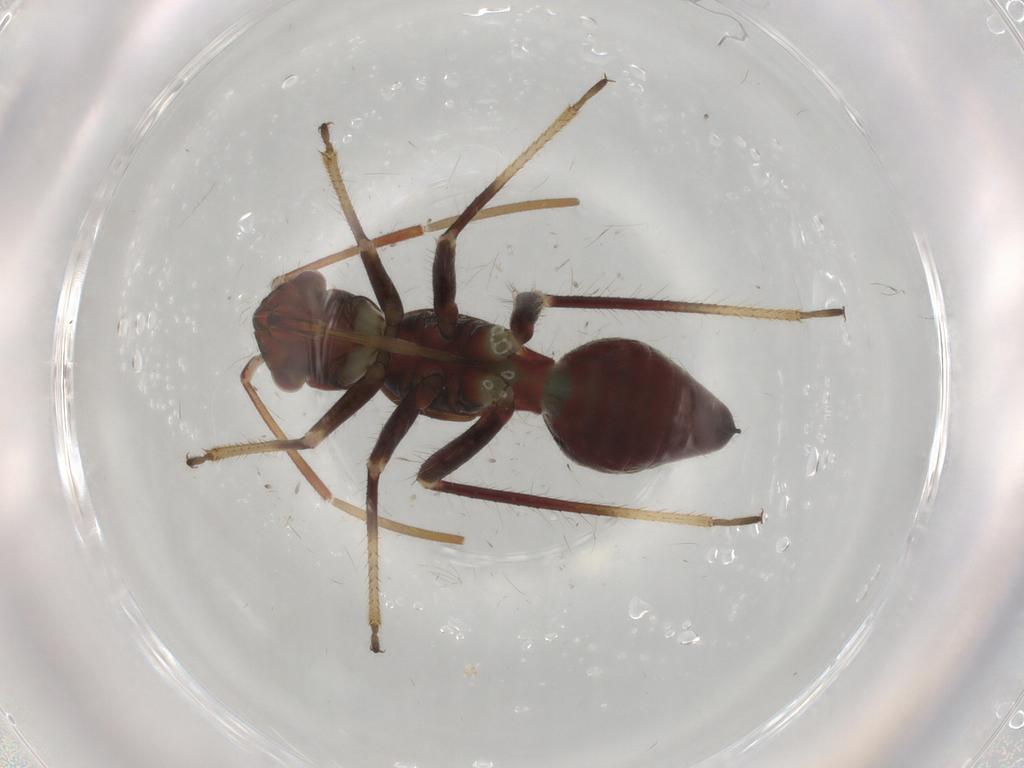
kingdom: Animalia
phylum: Arthropoda
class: Insecta
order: Hemiptera
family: Miridae
